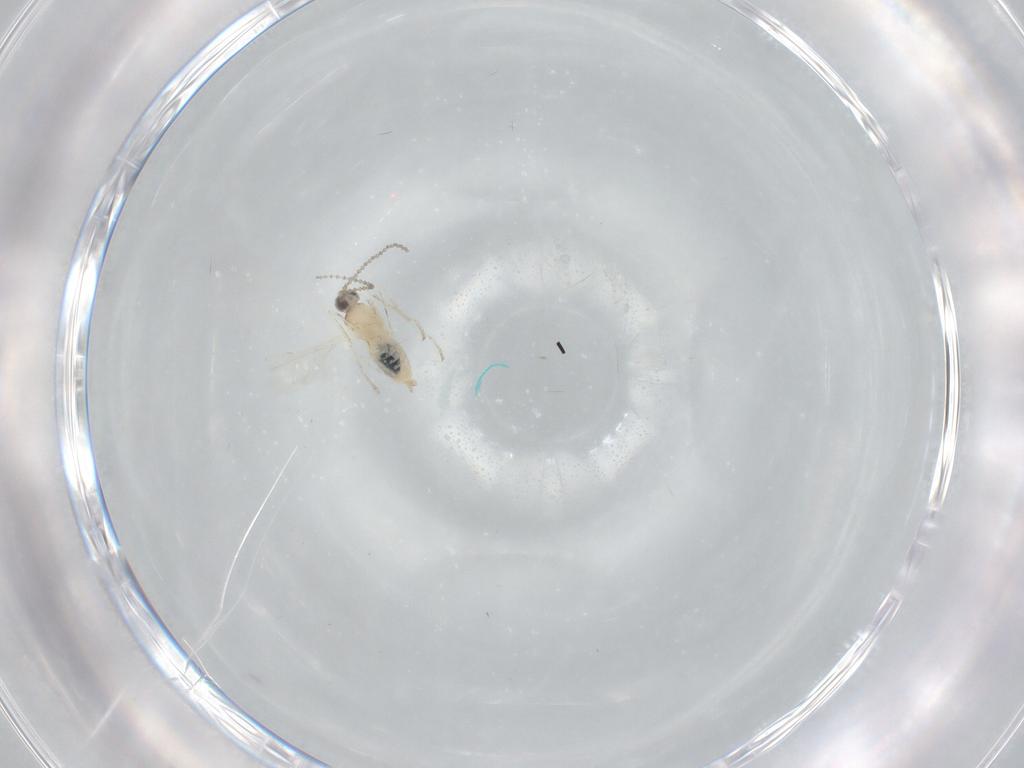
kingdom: Animalia
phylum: Arthropoda
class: Insecta
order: Diptera
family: Cecidomyiidae
